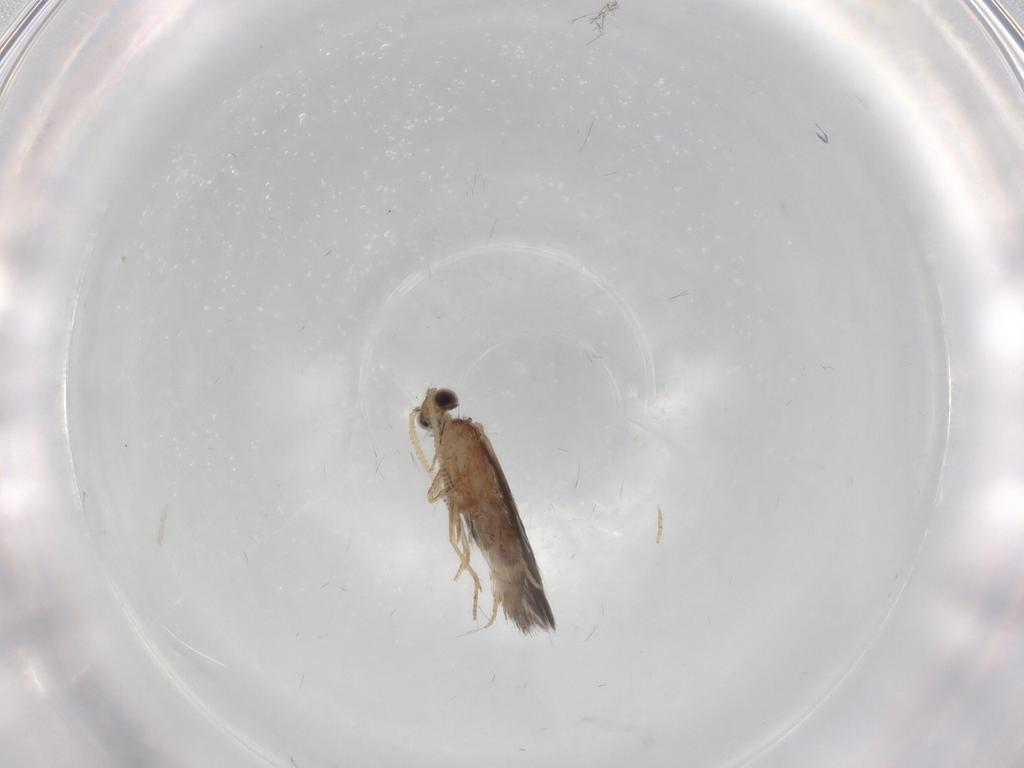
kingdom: Animalia
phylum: Arthropoda
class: Insecta
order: Trichoptera
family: Hydroptilidae
